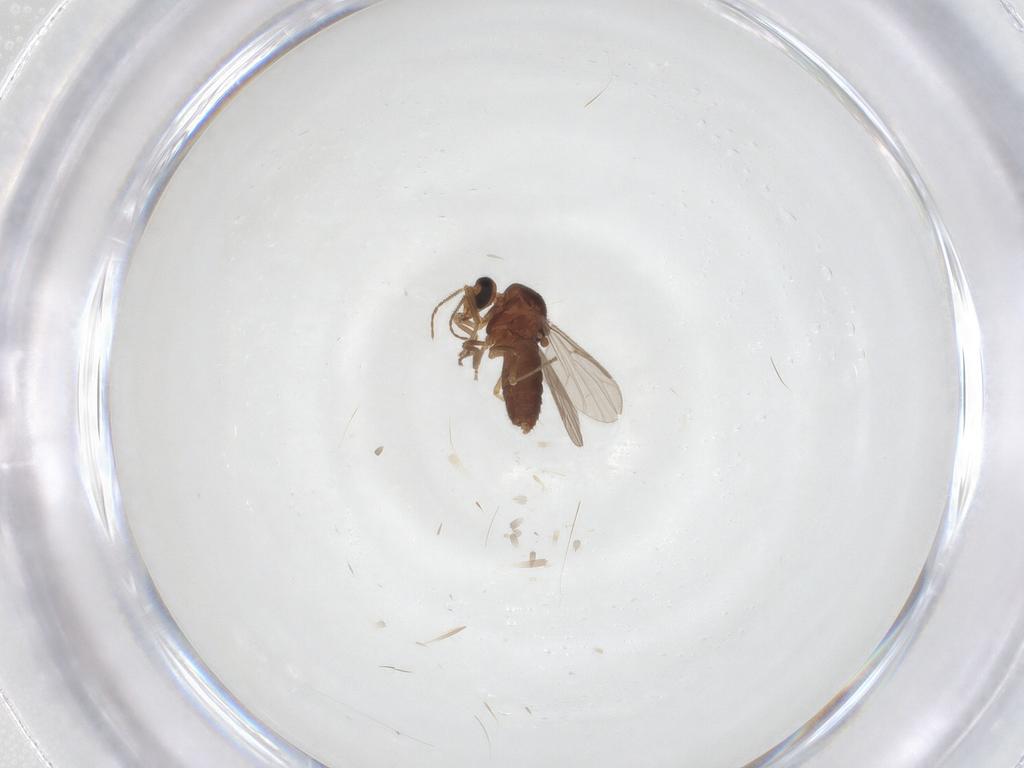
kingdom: Animalia
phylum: Arthropoda
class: Insecta
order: Diptera
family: Ceratopogonidae
